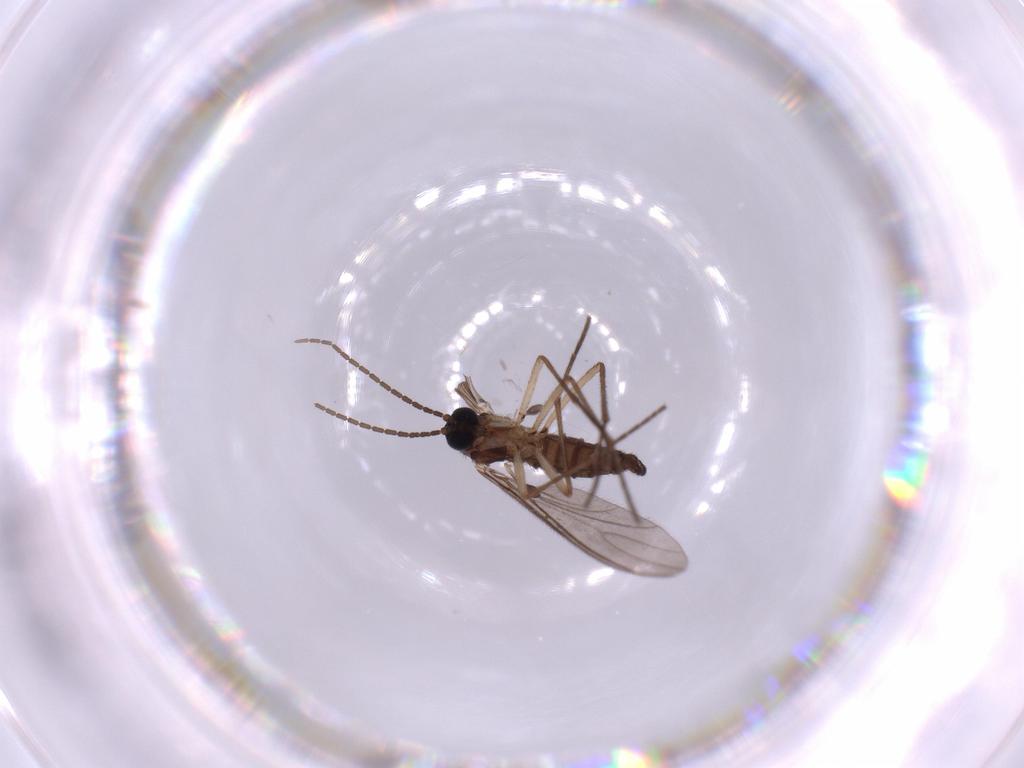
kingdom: Animalia
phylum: Arthropoda
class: Insecta
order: Diptera
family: Sciaridae
